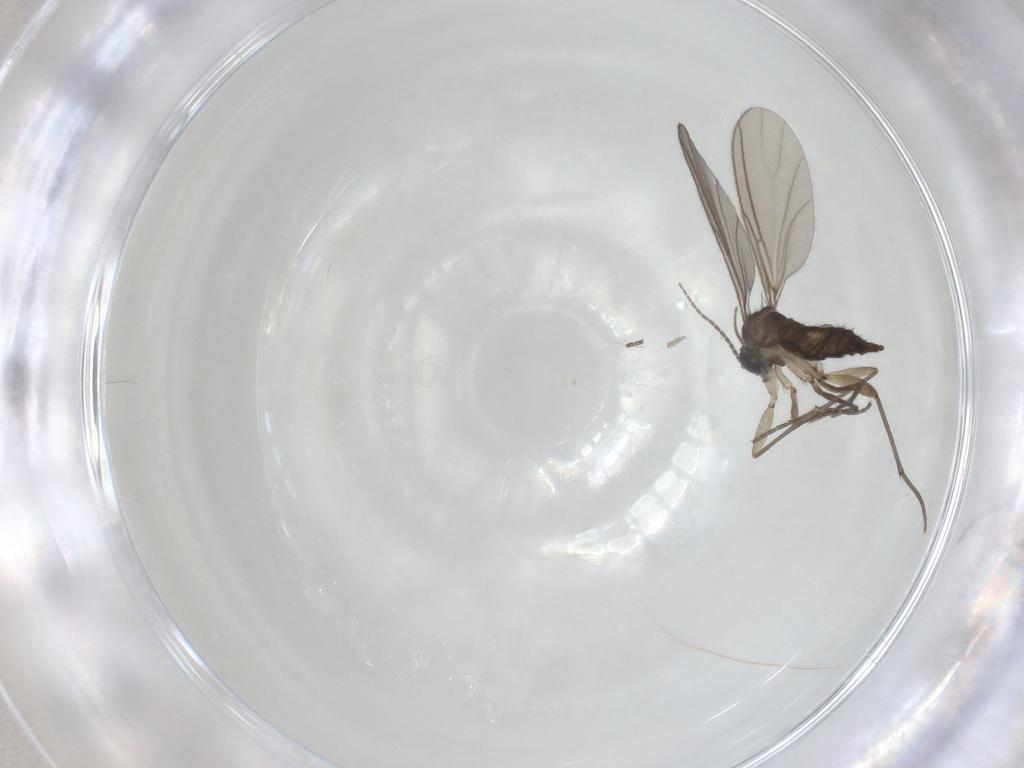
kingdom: Animalia
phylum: Arthropoda
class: Insecta
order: Diptera
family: Sciaridae
